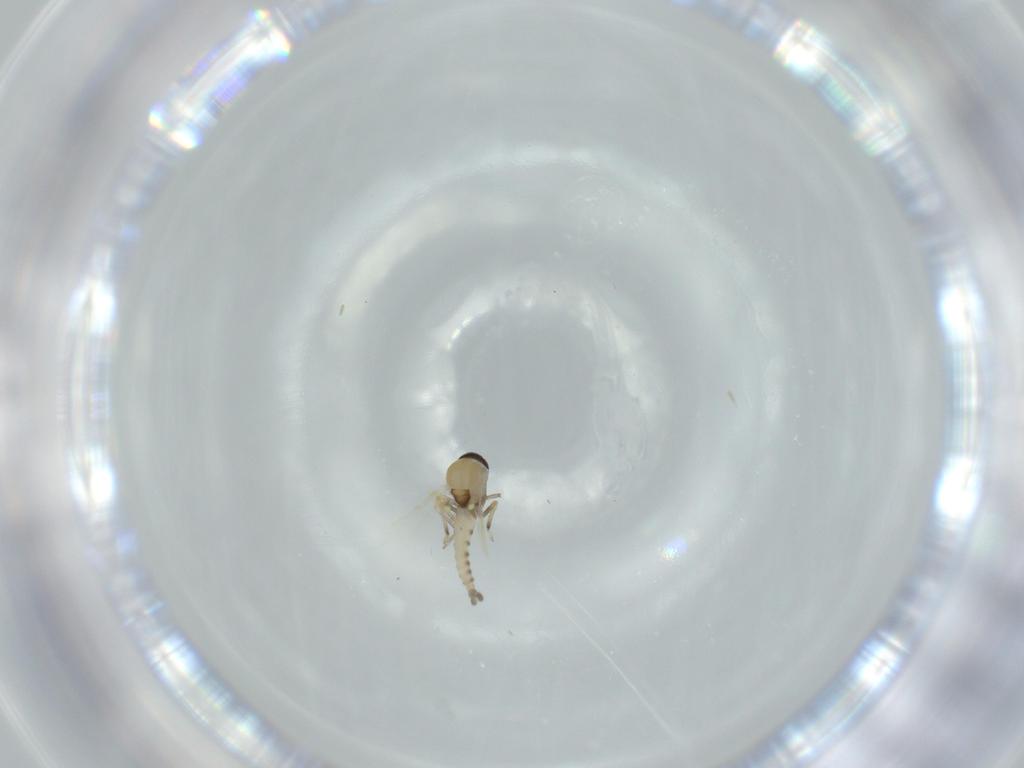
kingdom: Animalia
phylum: Arthropoda
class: Insecta
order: Diptera
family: Ceratopogonidae
